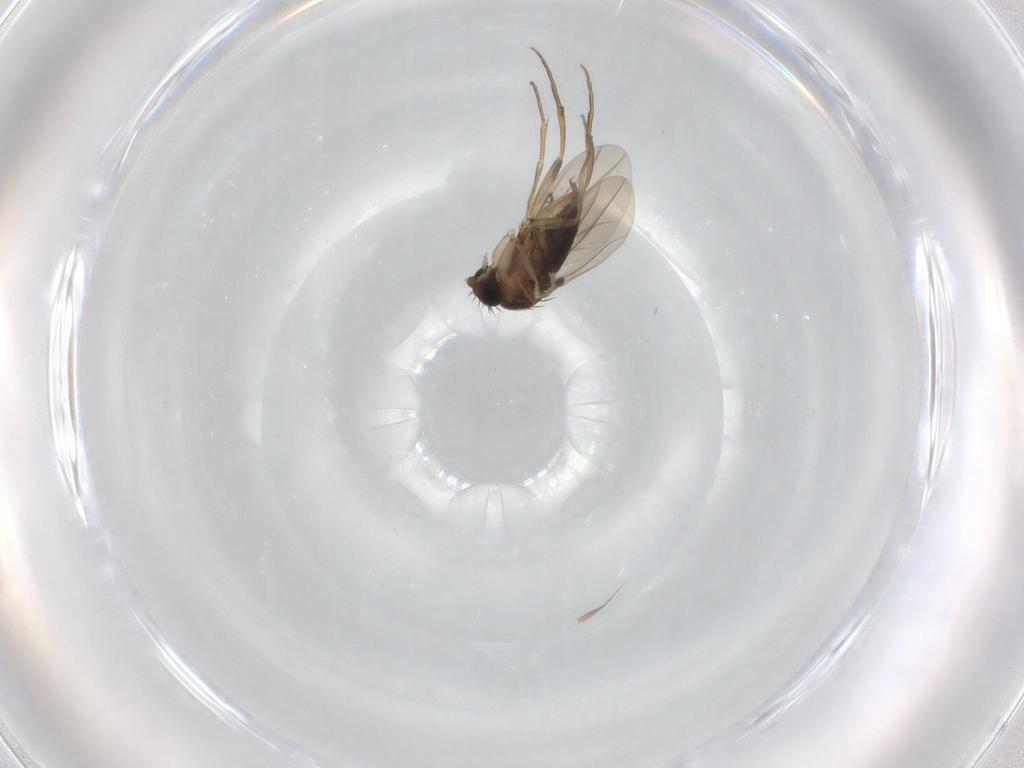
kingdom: Animalia
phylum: Arthropoda
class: Insecta
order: Diptera
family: Phoridae
